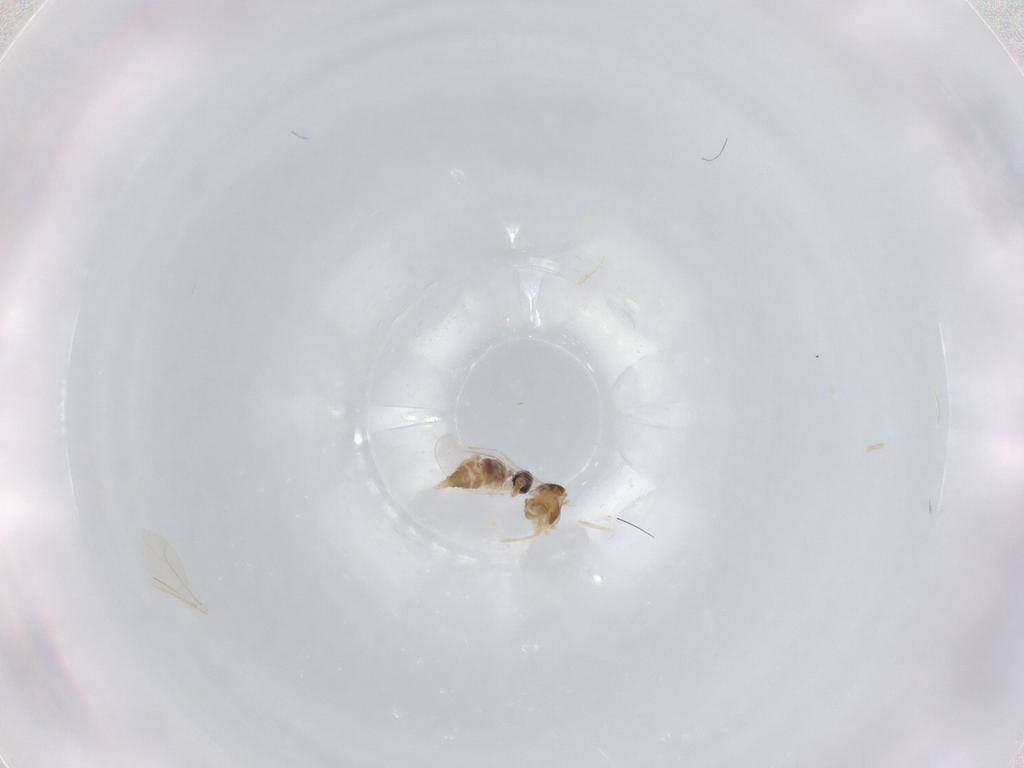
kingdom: Animalia
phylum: Arthropoda
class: Insecta
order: Diptera
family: Cecidomyiidae
